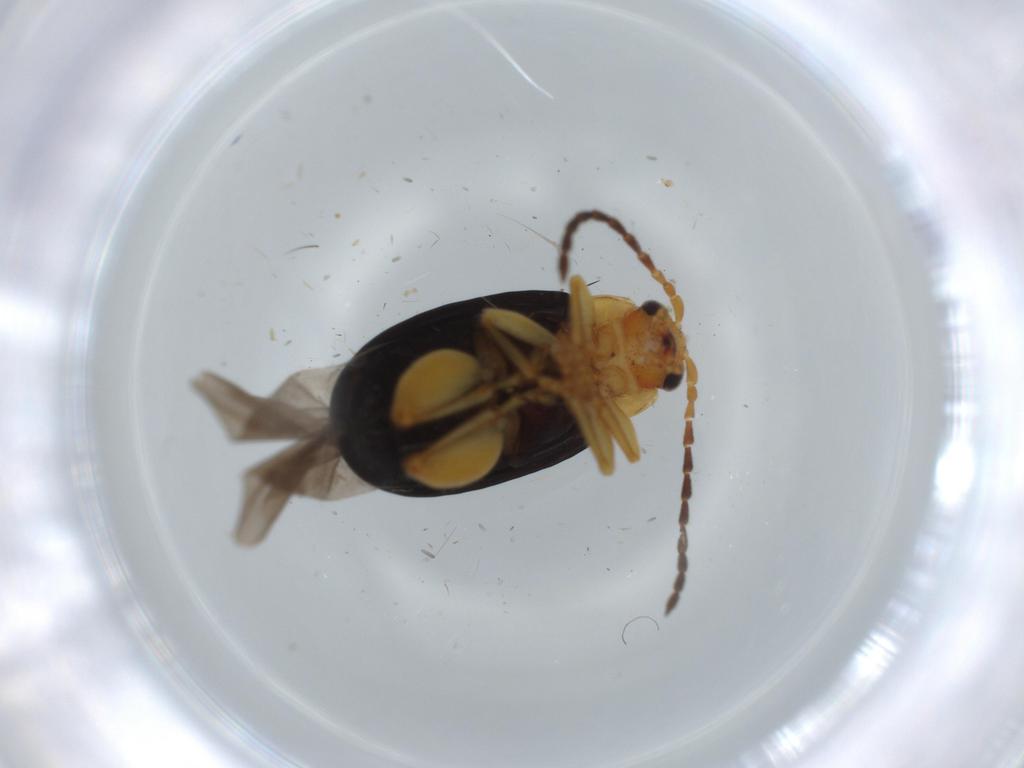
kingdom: Animalia
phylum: Arthropoda
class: Insecta
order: Coleoptera
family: Chrysomelidae
